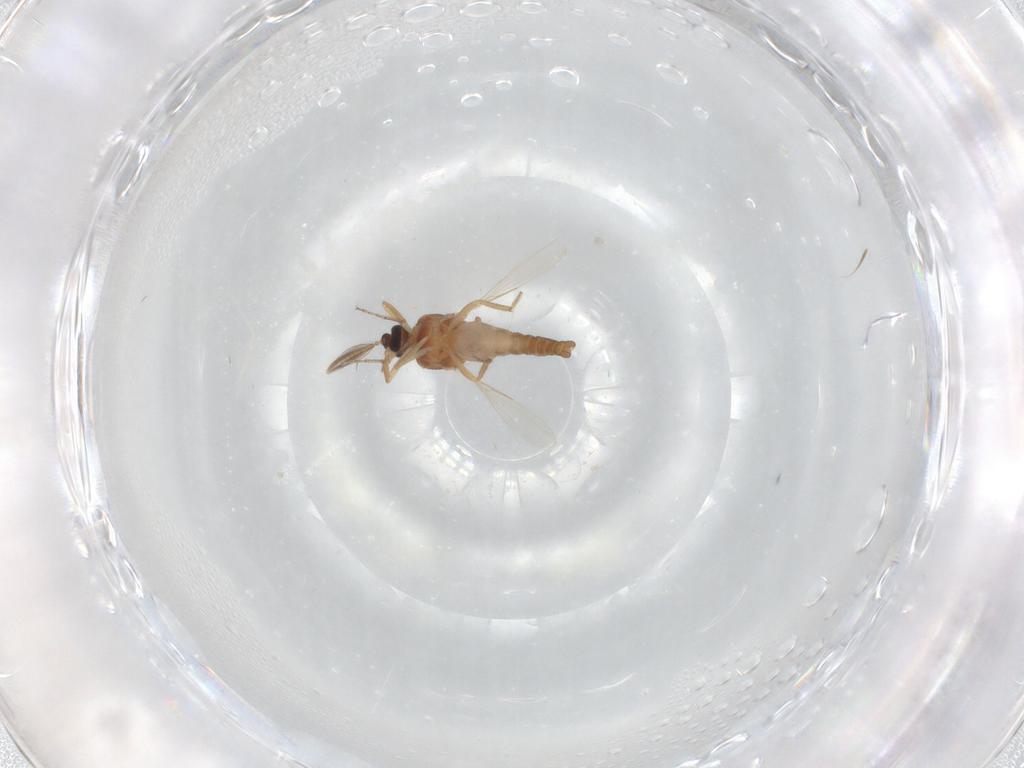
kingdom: Animalia
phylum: Arthropoda
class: Insecta
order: Diptera
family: Ceratopogonidae
